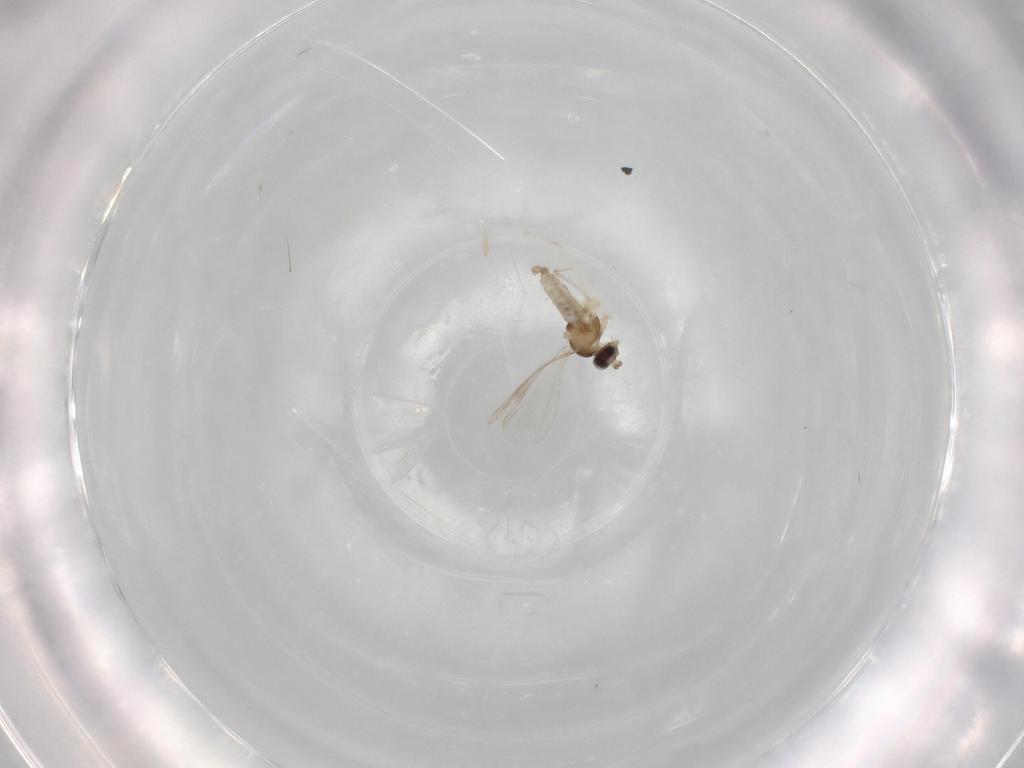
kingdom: Animalia
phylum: Arthropoda
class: Insecta
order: Diptera
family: Cecidomyiidae
